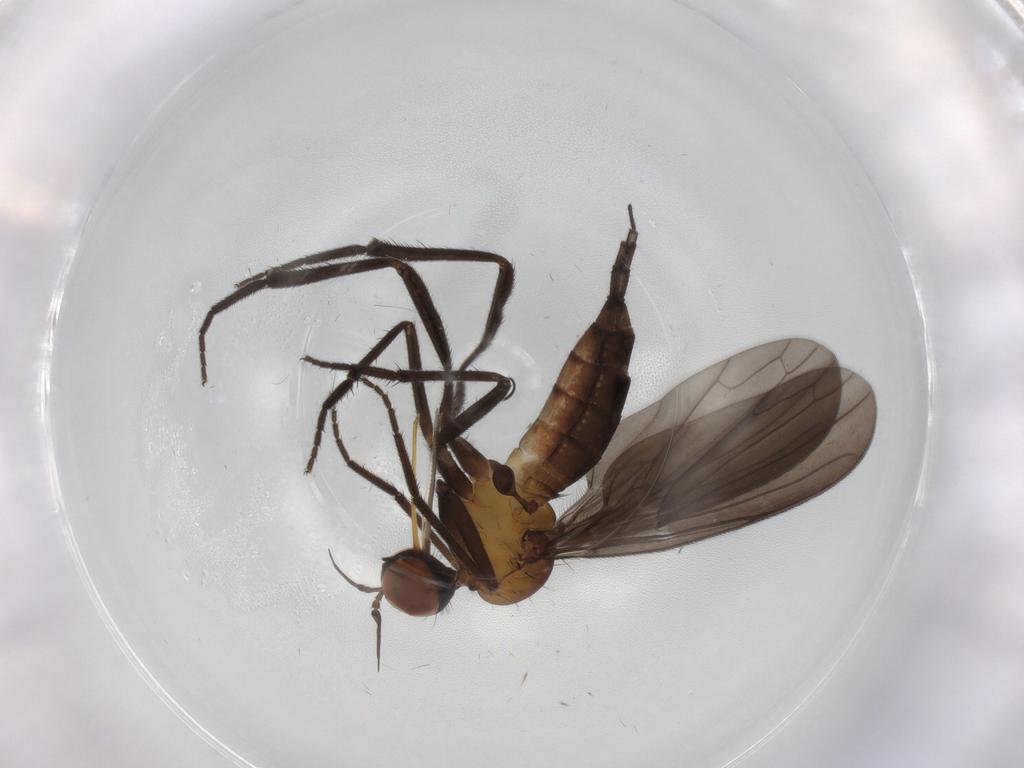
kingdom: Animalia
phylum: Arthropoda
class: Insecta
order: Diptera
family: Empididae
